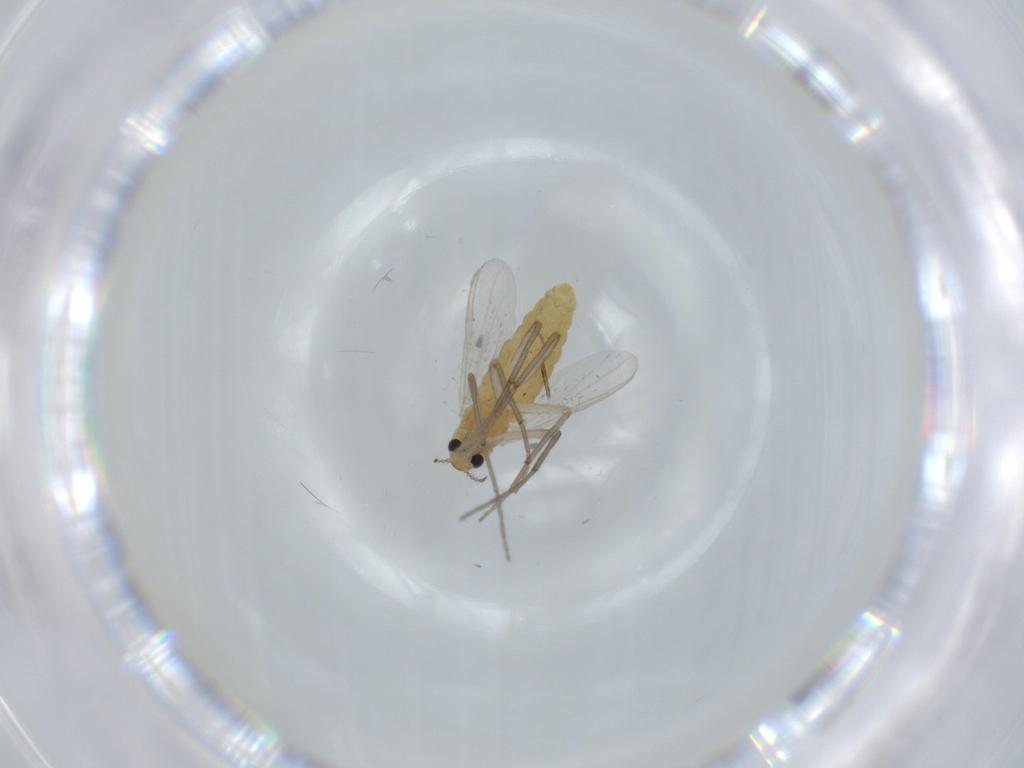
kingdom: Animalia
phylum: Arthropoda
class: Insecta
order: Diptera
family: Chironomidae
